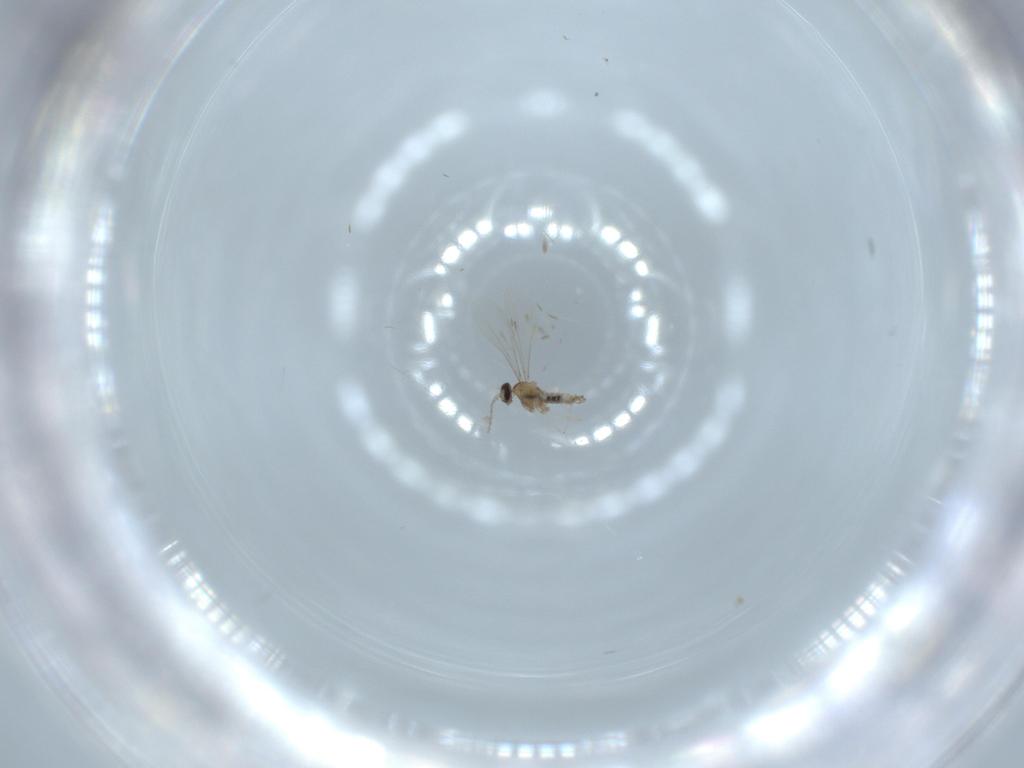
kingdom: Animalia
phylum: Arthropoda
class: Insecta
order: Diptera
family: Cecidomyiidae
